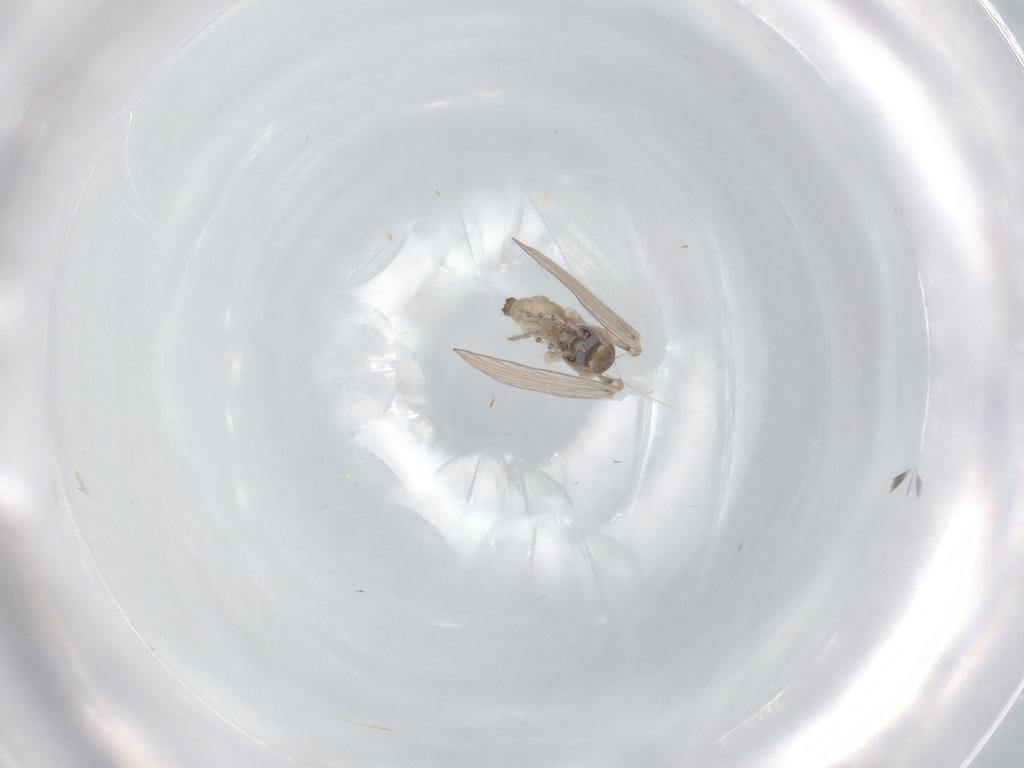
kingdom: Animalia
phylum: Arthropoda
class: Insecta
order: Diptera
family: Psychodidae
